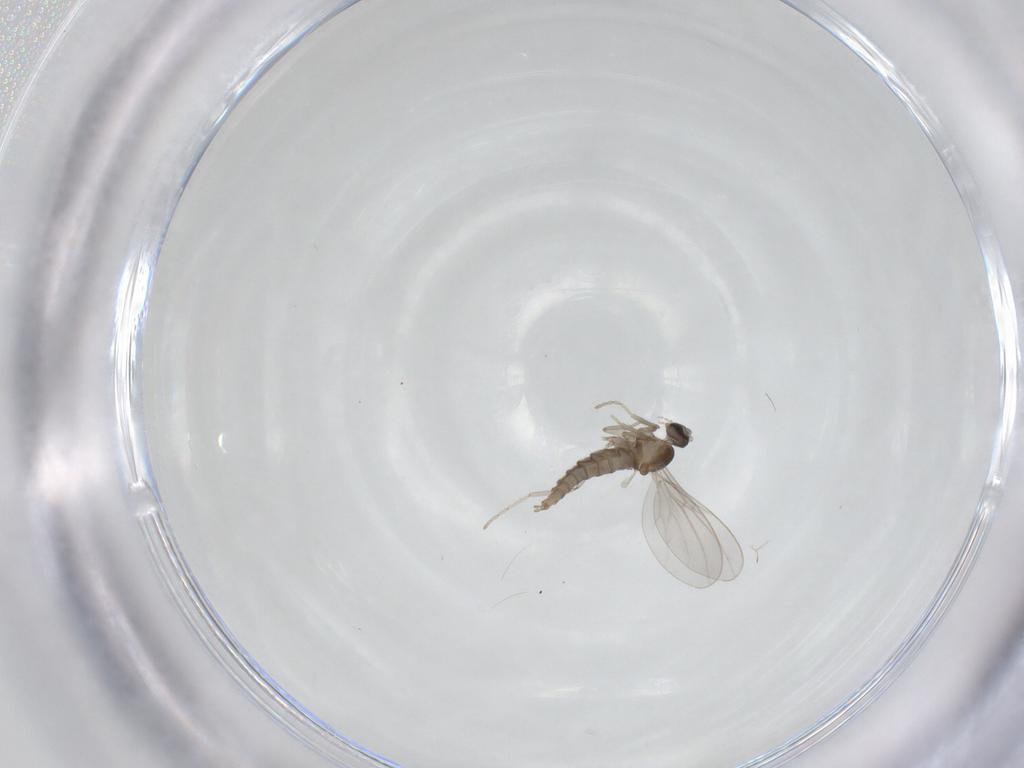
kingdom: Animalia
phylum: Arthropoda
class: Insecta
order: Diptera
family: Cecidomyiidae
